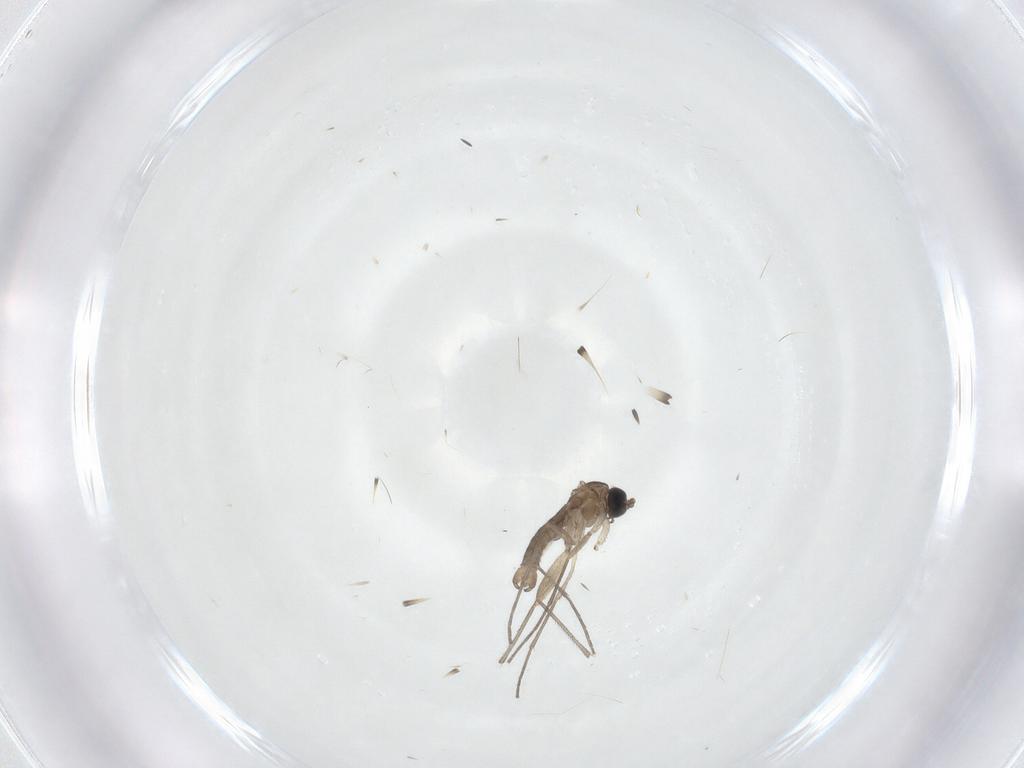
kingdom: Animalia
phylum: Arthropoda
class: Insecta
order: Diptera
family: Sciaridae
